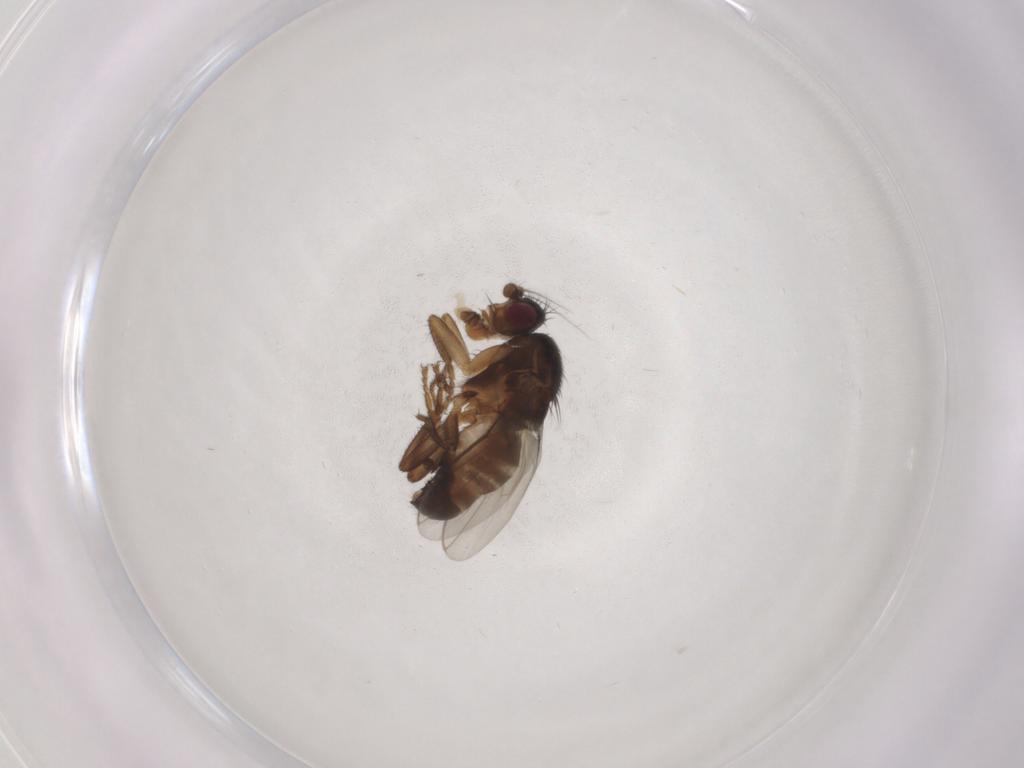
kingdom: Animalia
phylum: Arthropoda
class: Insecta
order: Diptera
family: Sphaeroceridae
